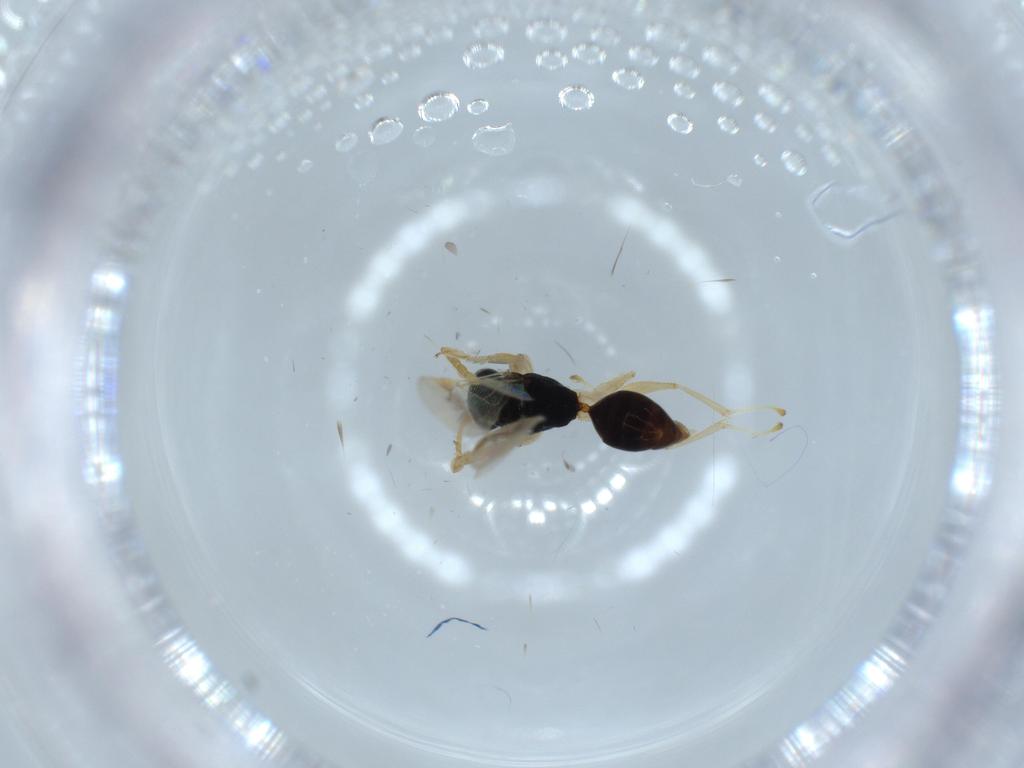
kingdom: Animalia
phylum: Arthropoda
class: Insecta
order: Hymenoptera
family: Dryinidae
